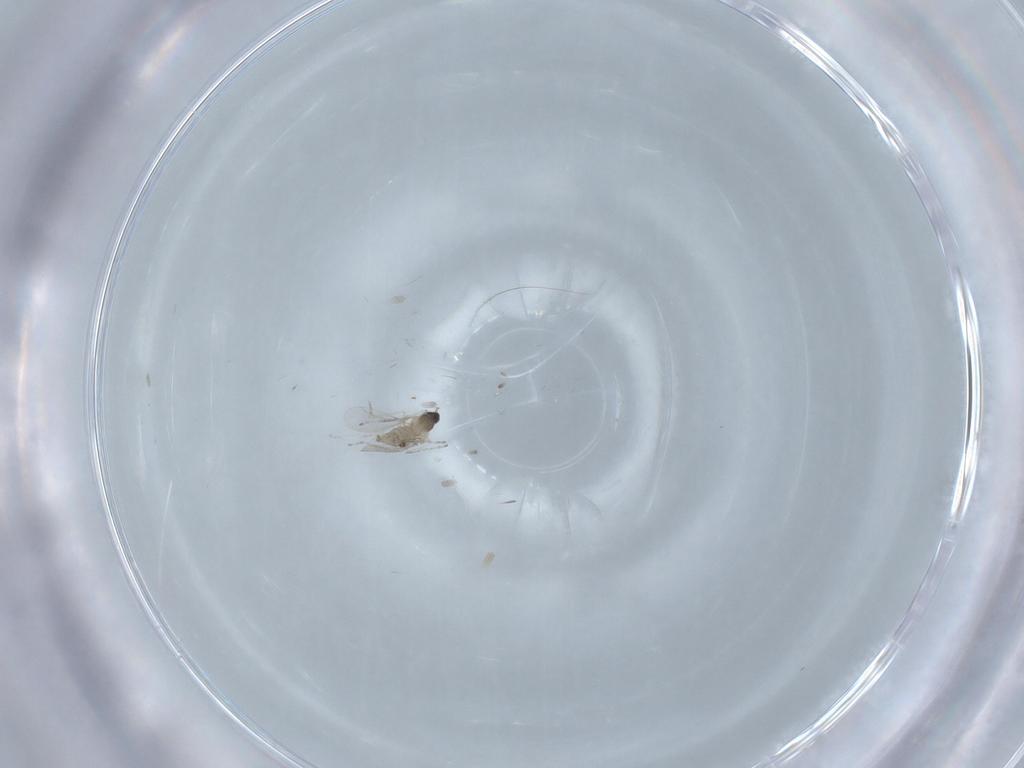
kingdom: Animalia
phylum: Arthropoda
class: Insecta
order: Diptera
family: Cecidomyiidae
